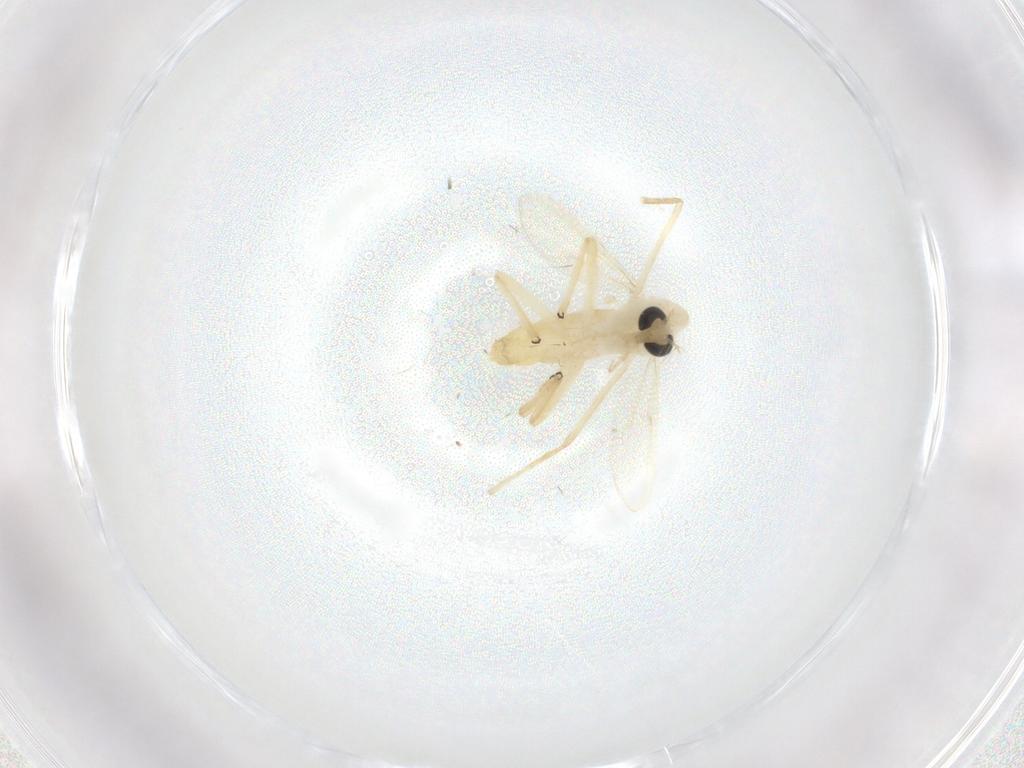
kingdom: Animalia
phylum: Arthropoda
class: Insecta
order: Diptera
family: Chironomidae
